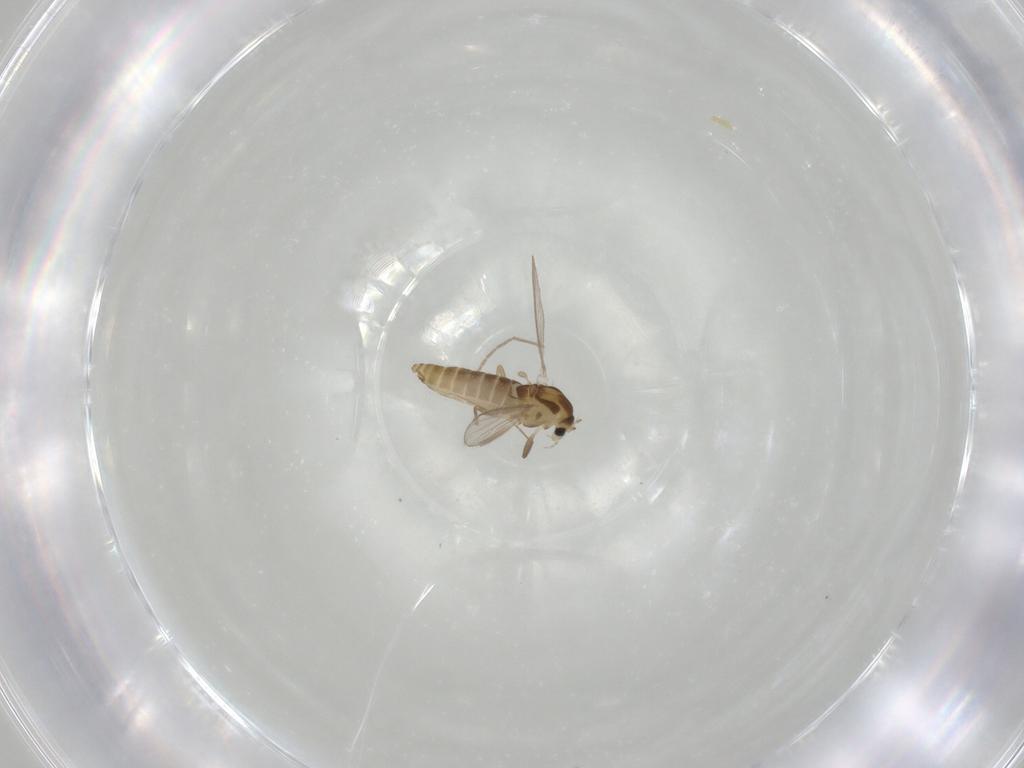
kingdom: Animalia
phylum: Arthropoda
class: Insecta
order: Diptera
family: Chironomidae
